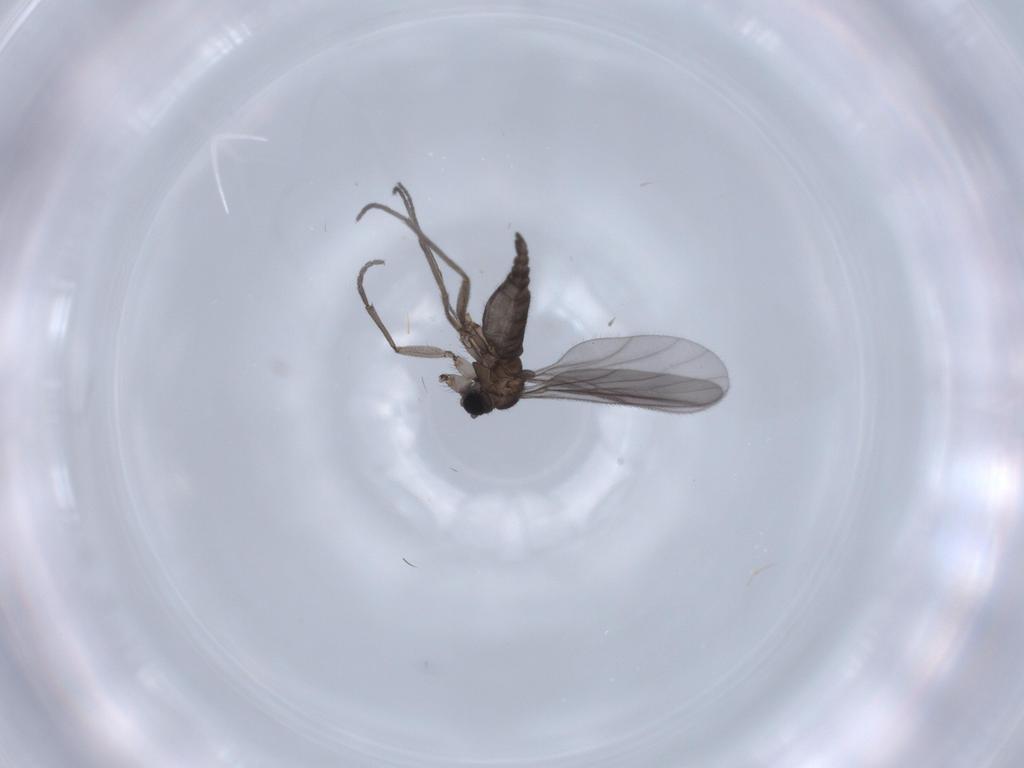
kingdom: Animalia
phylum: Arthropoda
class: Insecta
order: Diptera
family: Sciaridae
